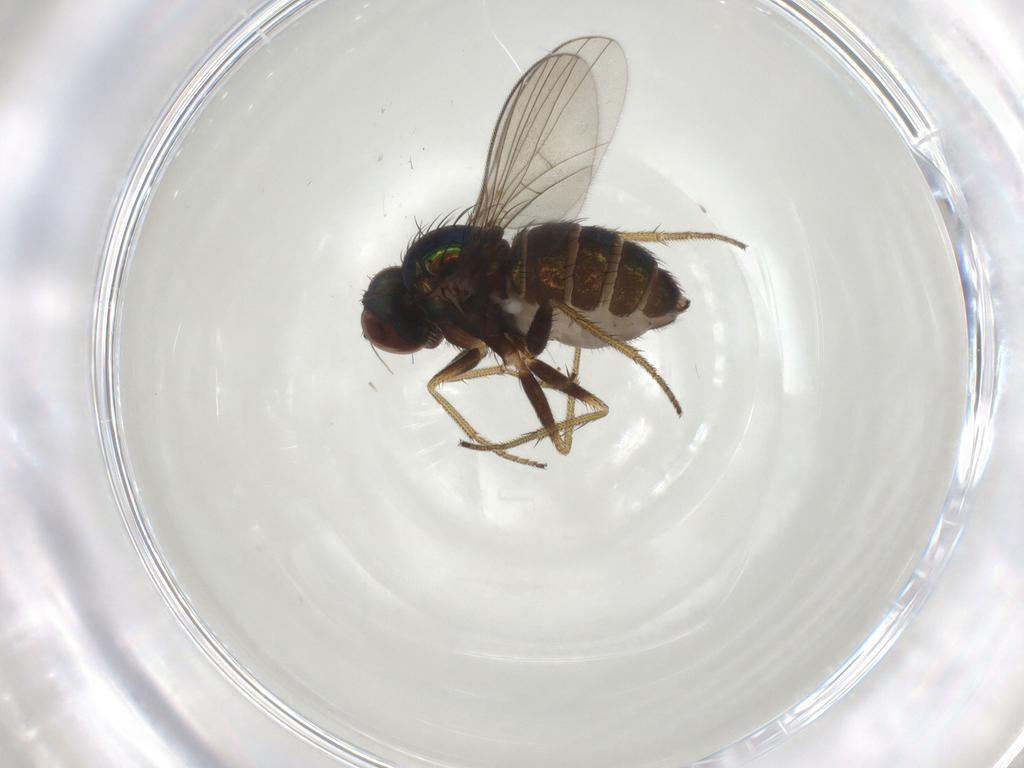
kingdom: Animalia
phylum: Arthropoda
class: Insecta
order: Diptera
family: Dolichopodidae
